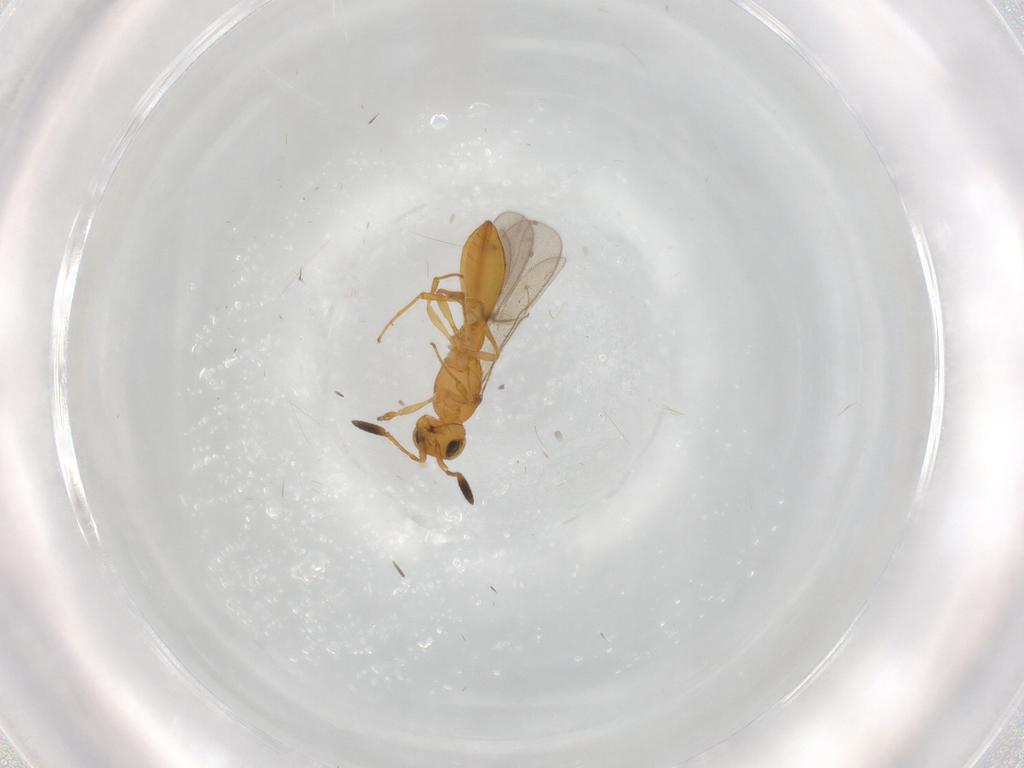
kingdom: Animalia
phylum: Arthropoda
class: Insecta
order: Hymenoptera
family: Scelionidae
